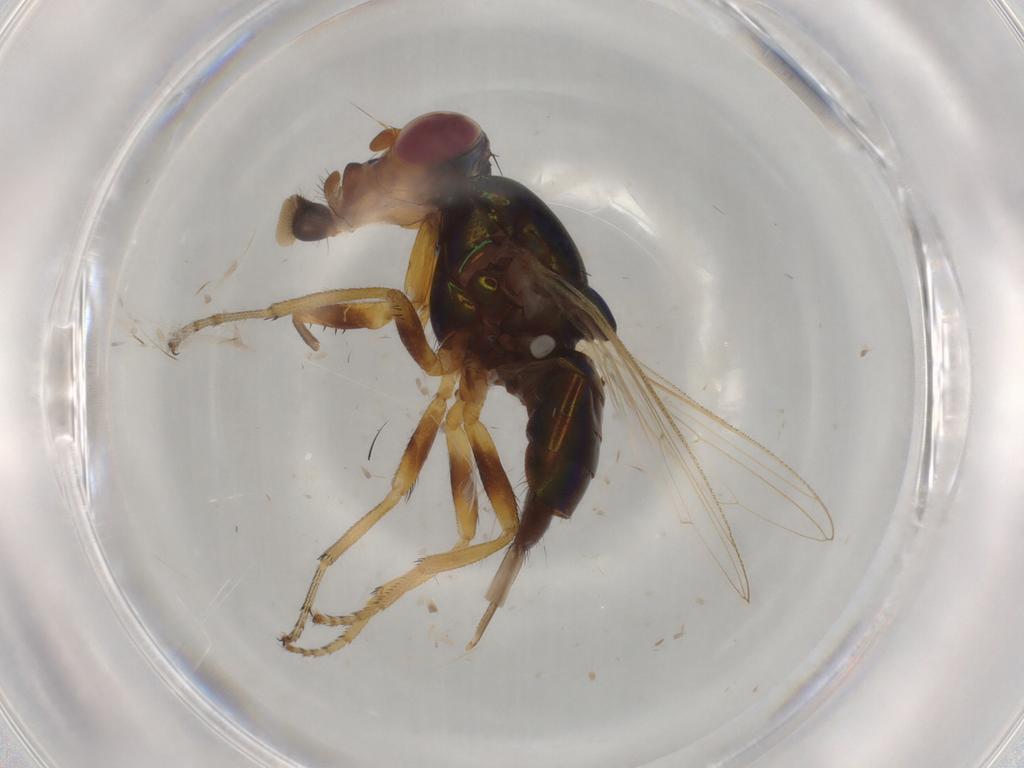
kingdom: Animalia
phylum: Arthropoda
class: Insecta
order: Diptera
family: Ulidiidae
